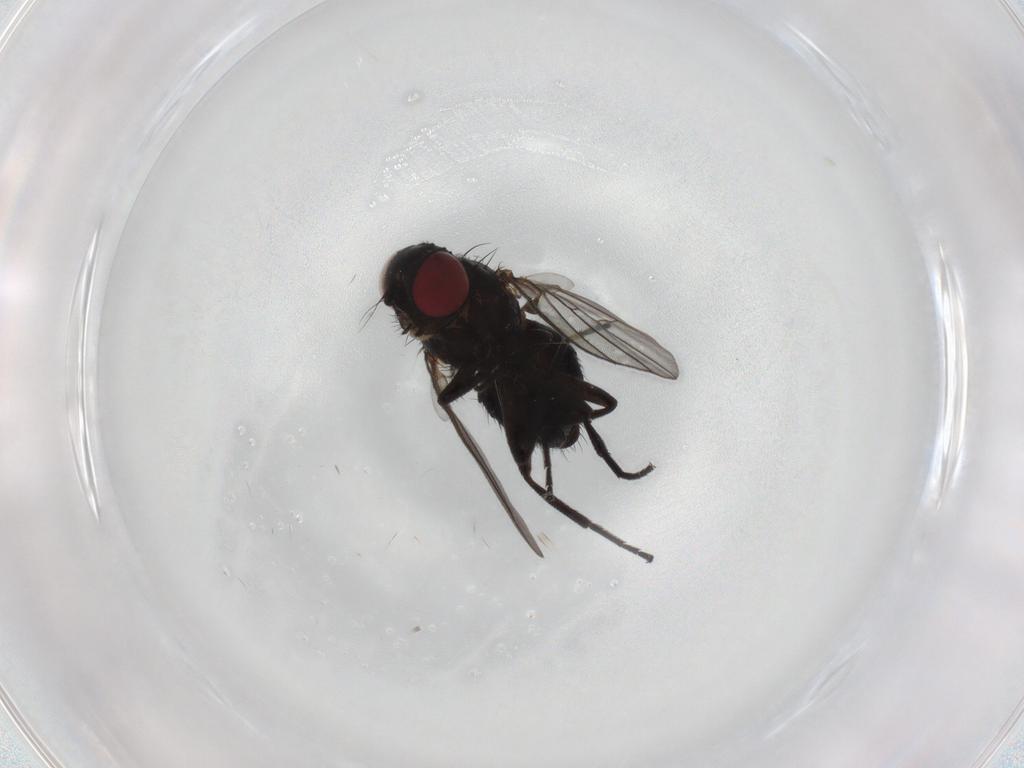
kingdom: Animalia
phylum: Arthropoda
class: Insecta
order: Diptera
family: Agromyzidae
